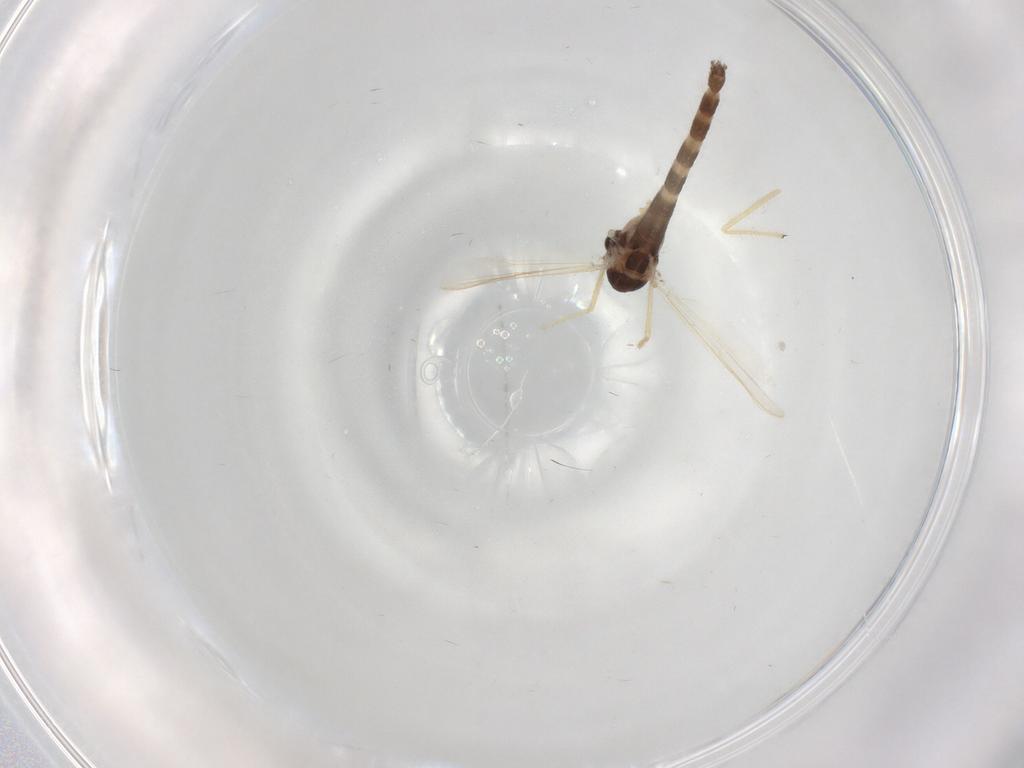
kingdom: Animalia
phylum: Arthropoda
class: Insecta
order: Diptera
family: Chironomidae
